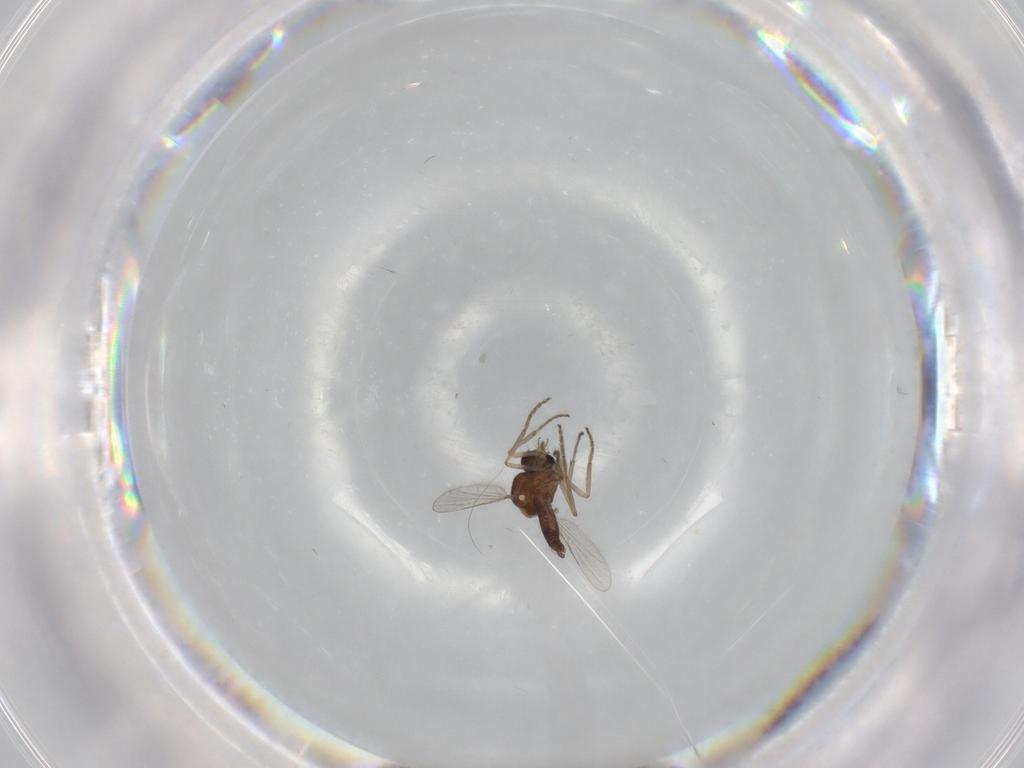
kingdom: Animalia
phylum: Arthropoda
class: Insecta
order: Diptera
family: Ceratopogonidae
